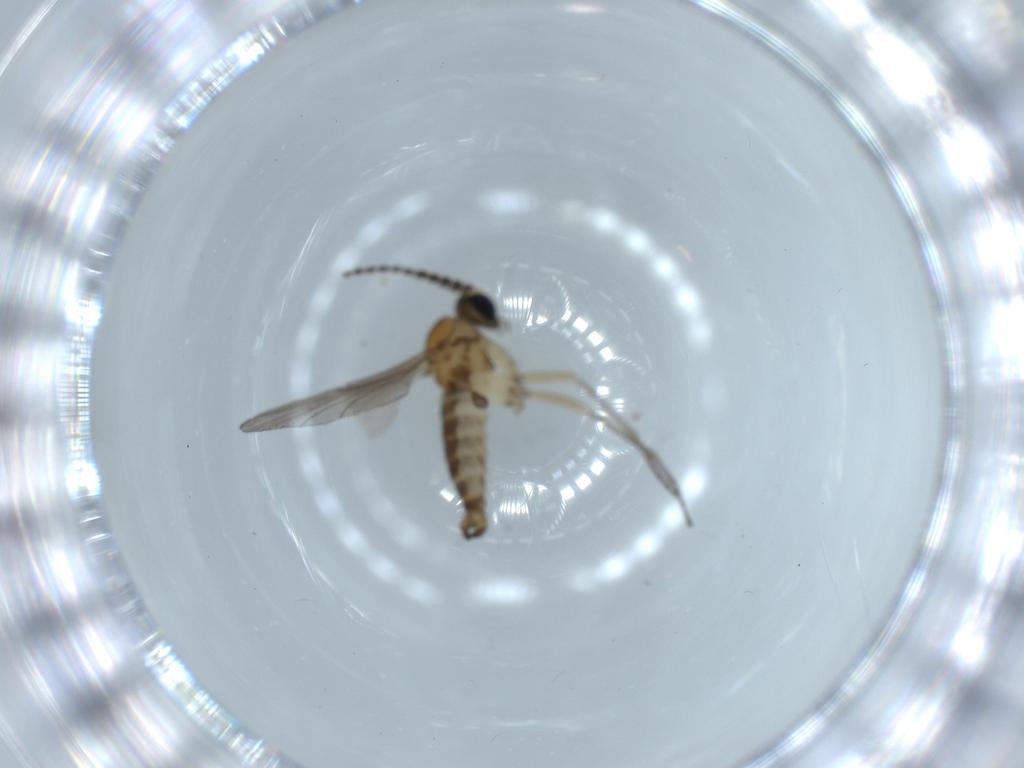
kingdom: Animalia
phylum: Arthropoda
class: Insecta
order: Diptera
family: Sciaridae
